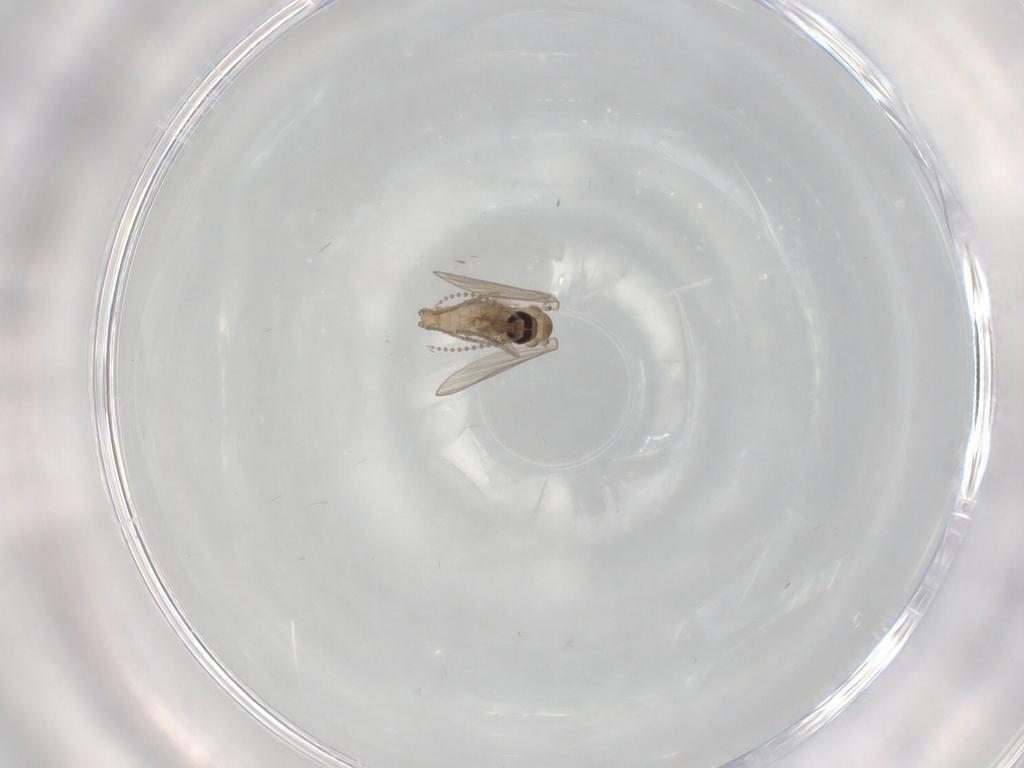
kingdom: Animalia
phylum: Arthropoda
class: Insecta
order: Diptera
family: Psychodidae
